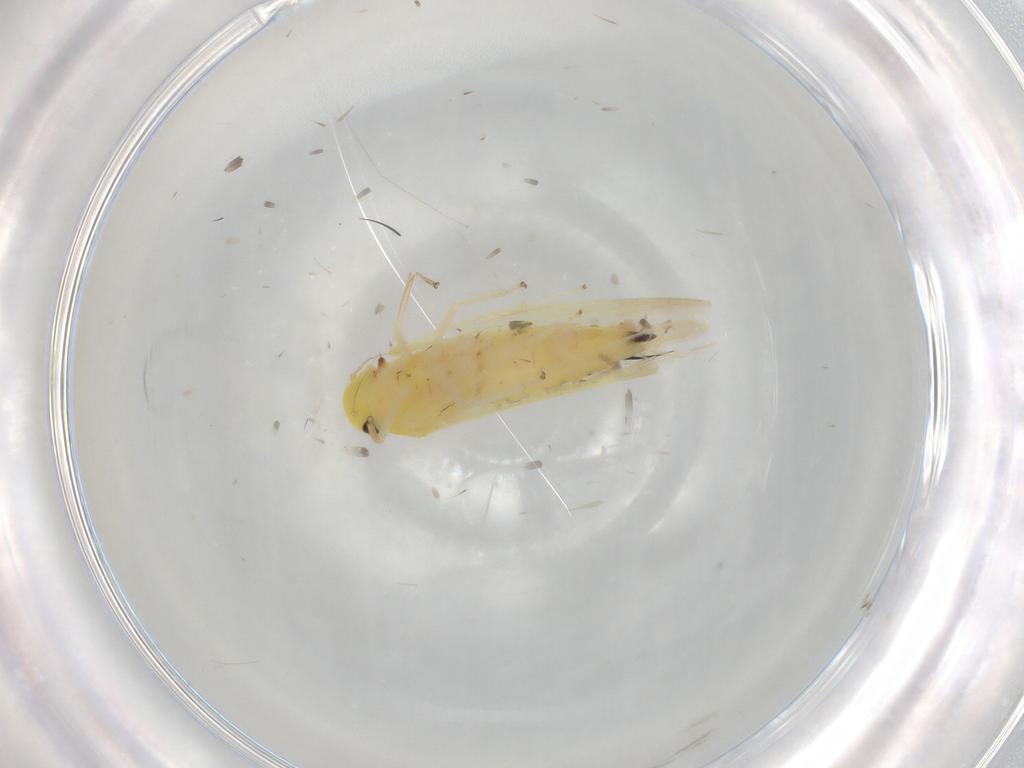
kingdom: Animalia
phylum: Arthropoda
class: Insecta
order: Hemiptera
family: Cicadellidae
